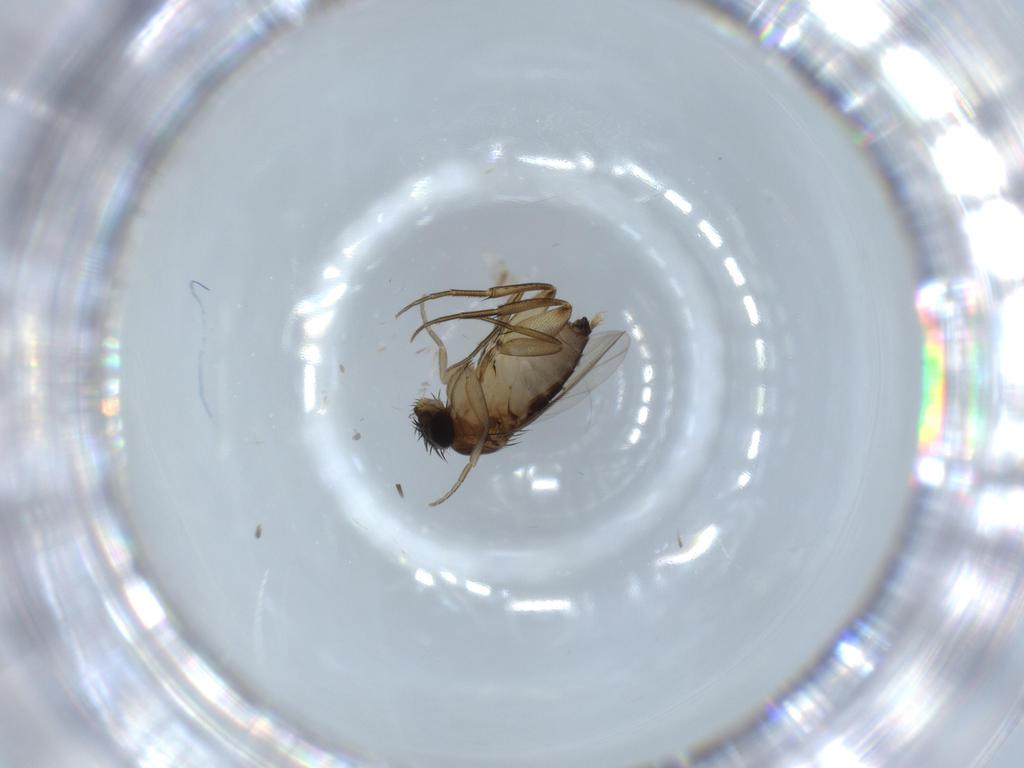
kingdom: Animalia
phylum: Arthropoda
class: Insecta
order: Diptera
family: Phoridae
